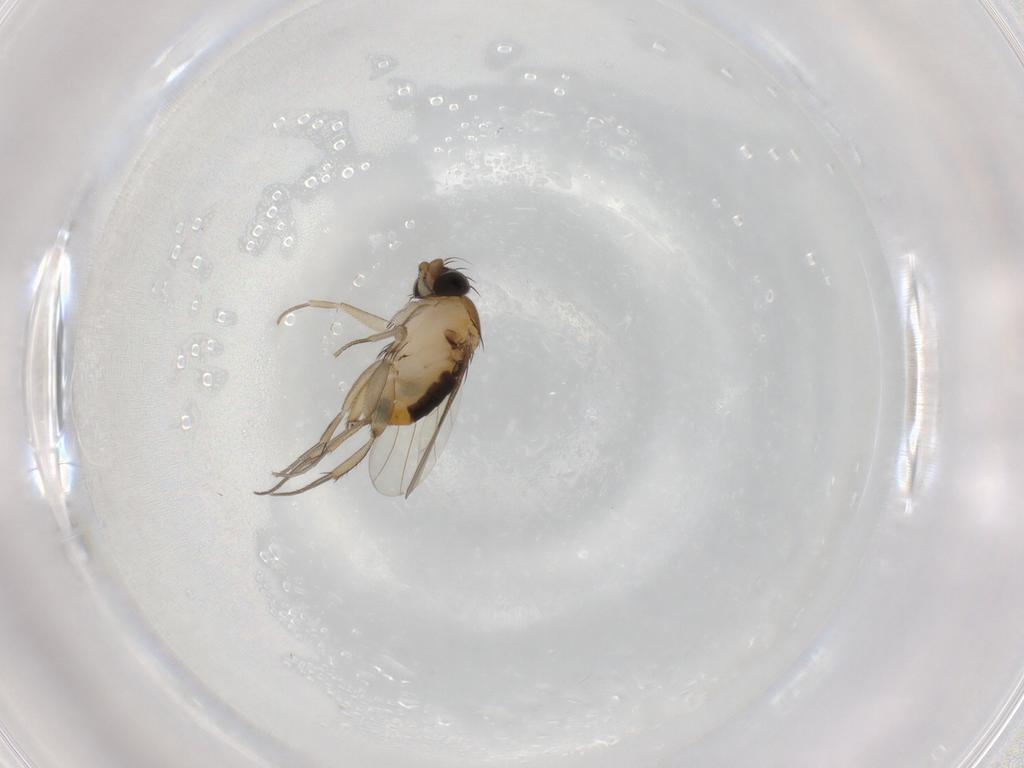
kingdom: Animalia
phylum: Arthropoda
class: Insecta
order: Diptera
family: Phoridae
